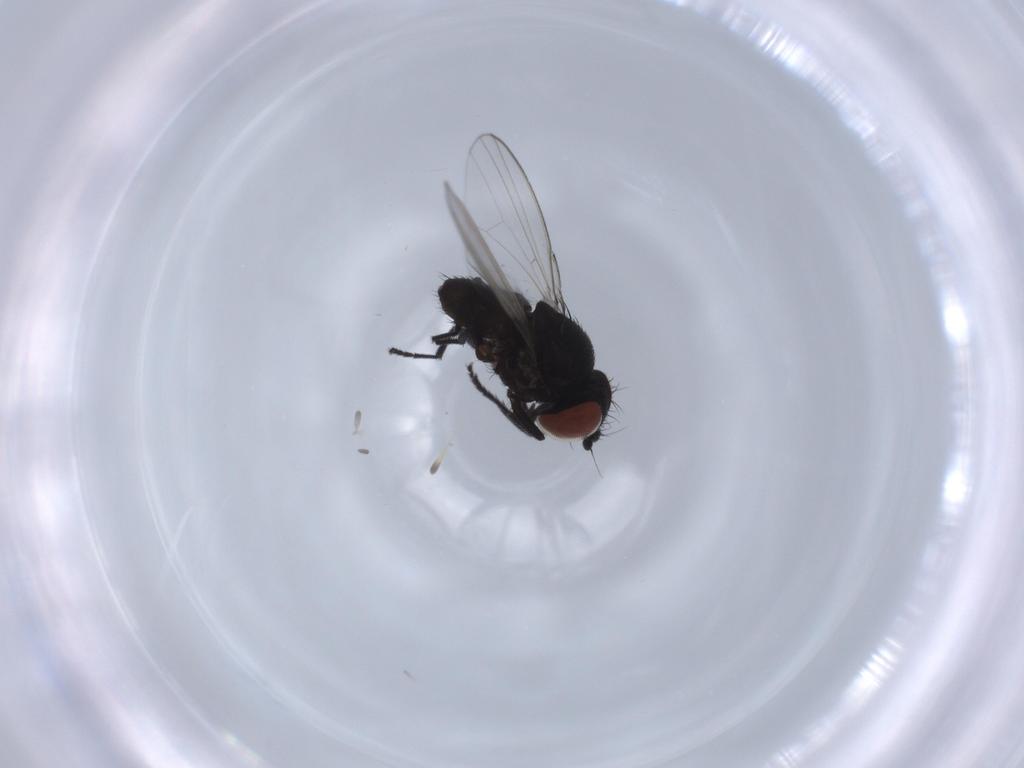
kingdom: Animalia
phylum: Arthropoda
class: Insecta
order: Diptera
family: Milichiidae
